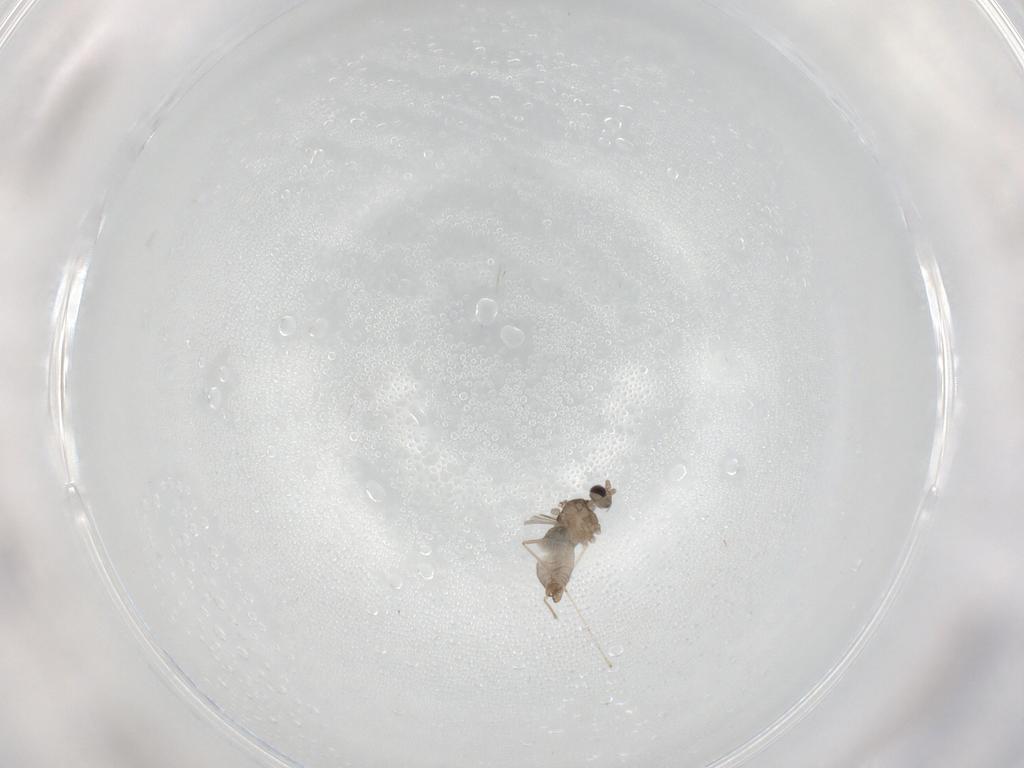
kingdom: Animalia
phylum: Arthropoda
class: Insecta
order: Diptera
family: Cecidomyiidae
